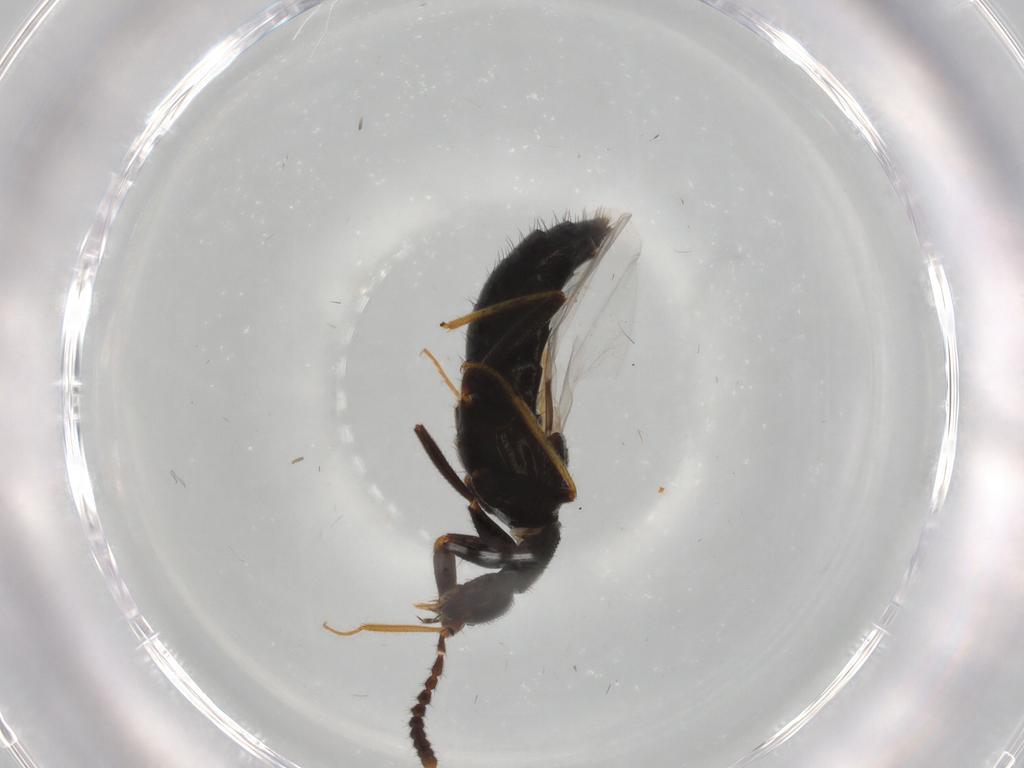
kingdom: Animalia
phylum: Arthropoda
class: Insecta
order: Coleoptera
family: Staphylinidae
